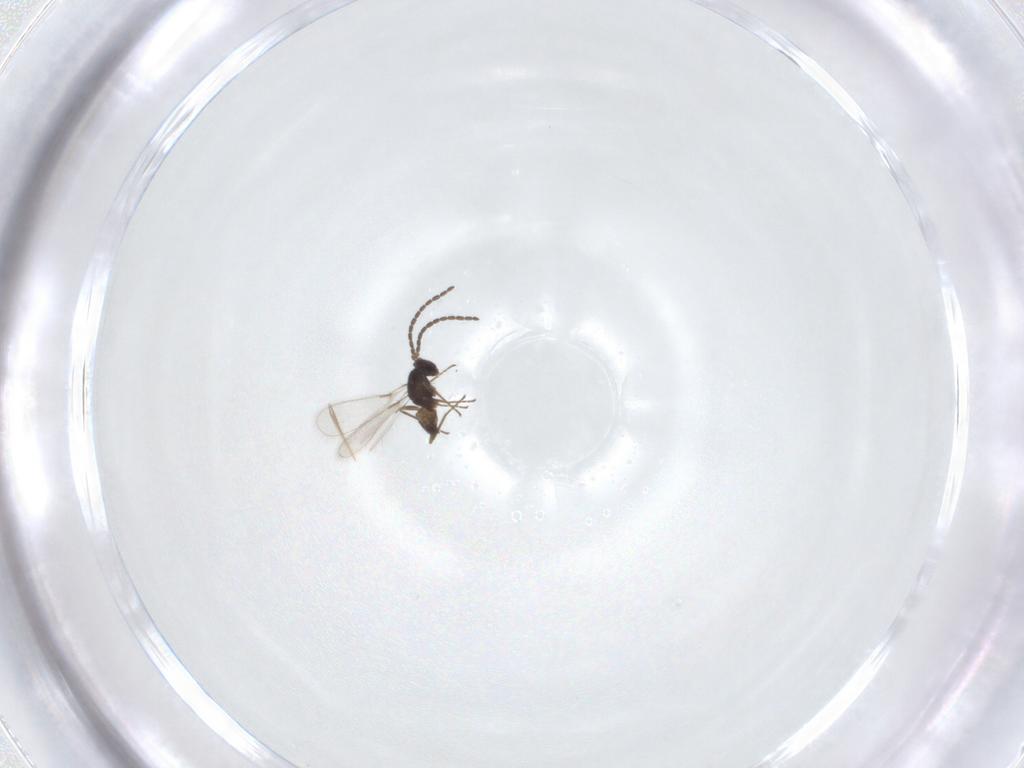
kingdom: Animalia
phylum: Arthropoda
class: Insecta
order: Hymenoptera
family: Mymaridae
